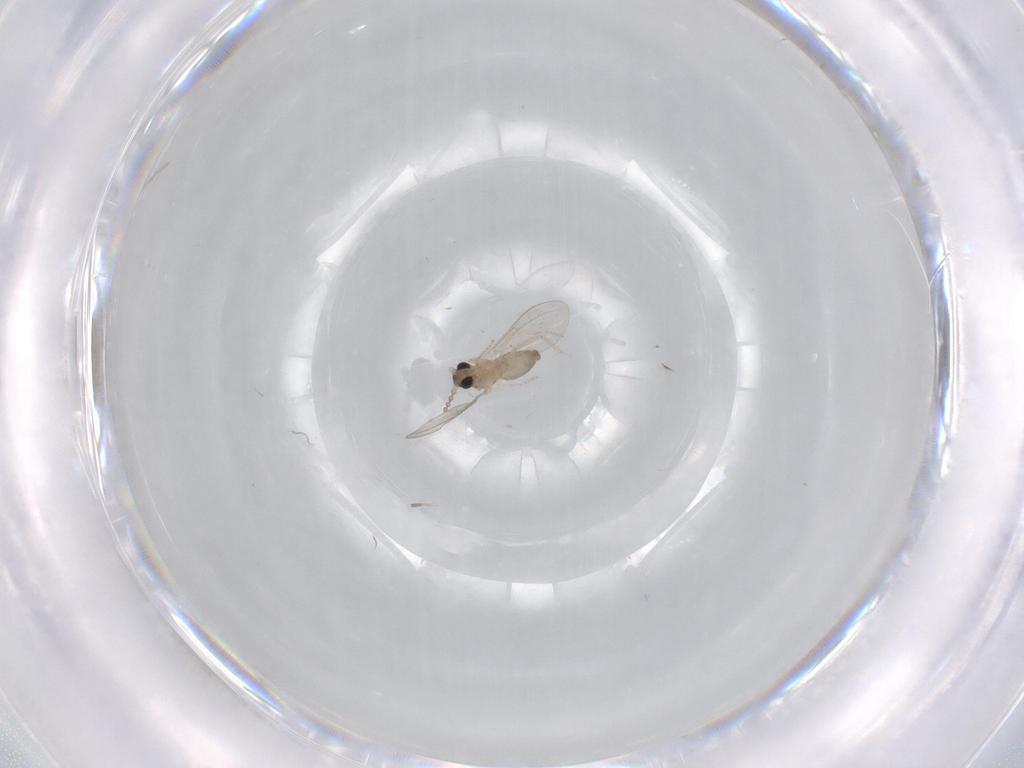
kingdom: Animalia
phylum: Arthropoda
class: Insecta
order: Diptera
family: Cecidomyiidae
